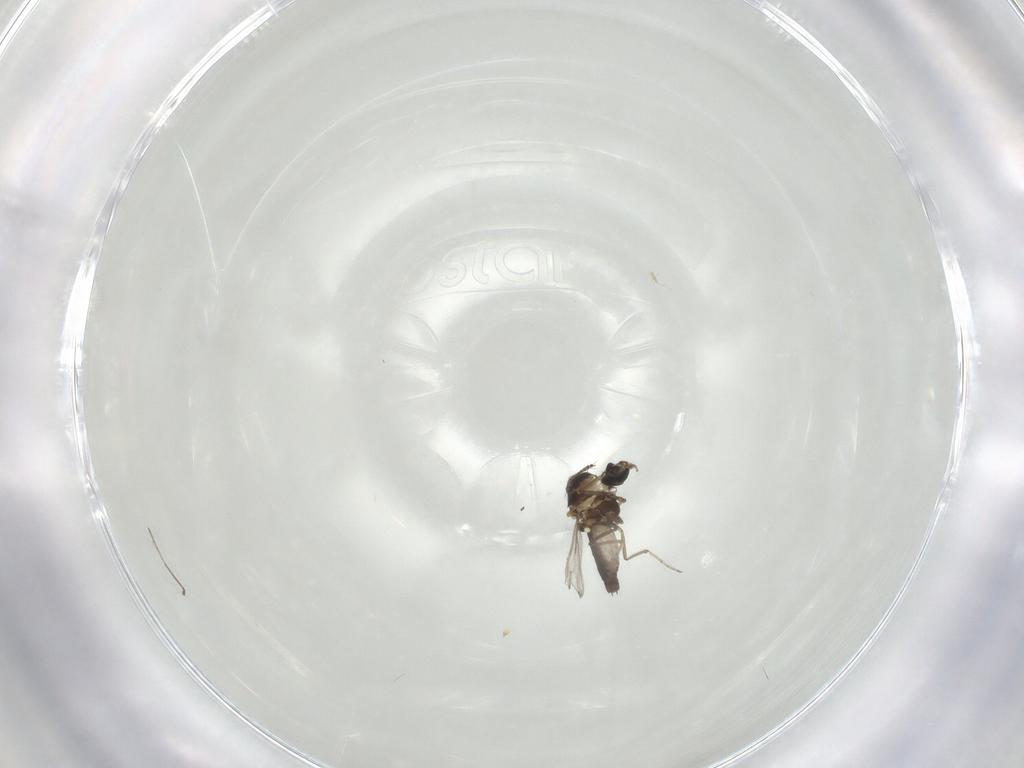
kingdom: Animalia
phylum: Arthropoda
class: Insecta
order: Diptera
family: Ceratopogonidae
